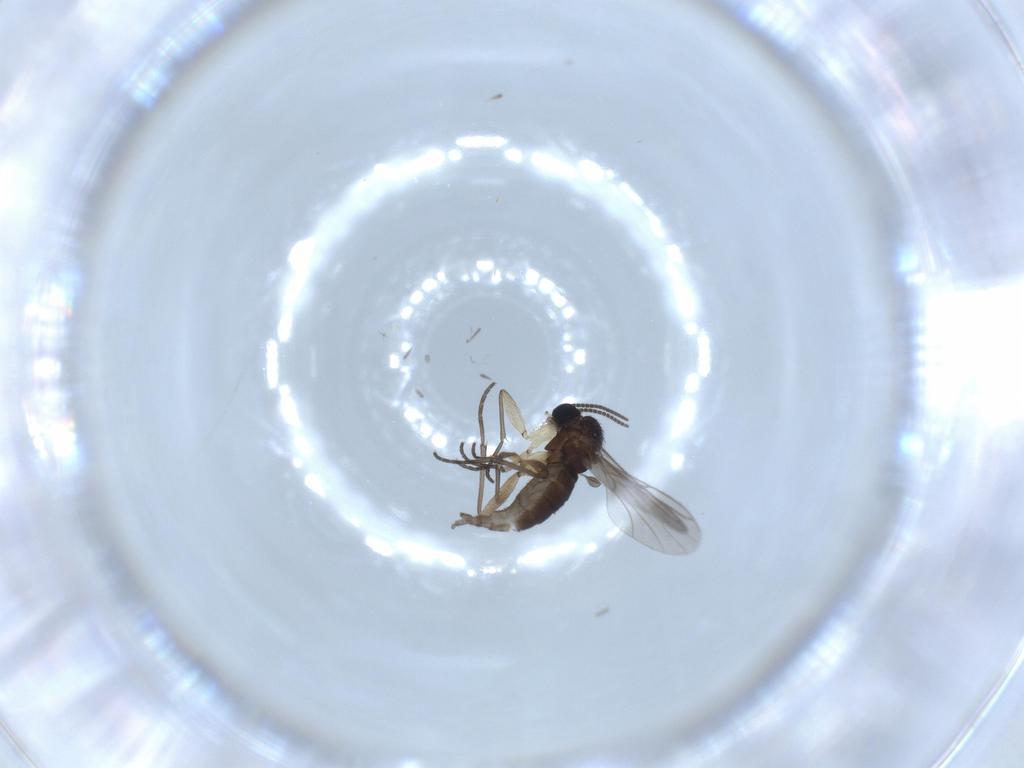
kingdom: Animalia
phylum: Arthropoda
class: Insecta
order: Diptera
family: Sciaridae
